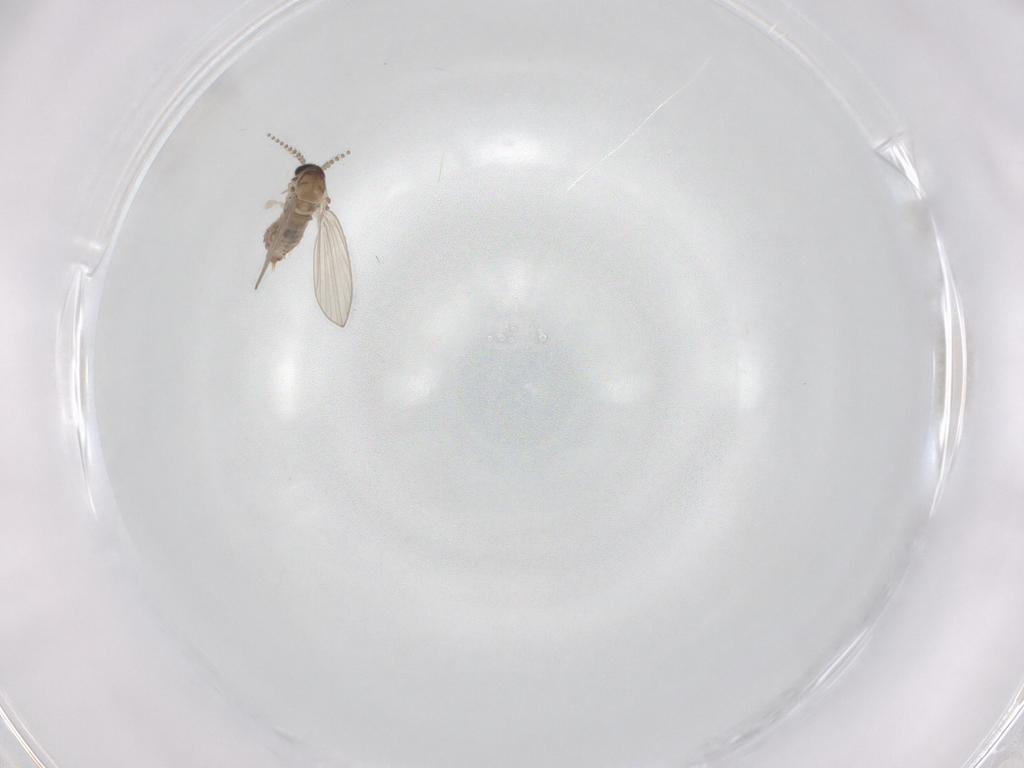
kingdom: Animalia
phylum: Arthropoda
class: Insecta
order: Diptera
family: Psychodidae
